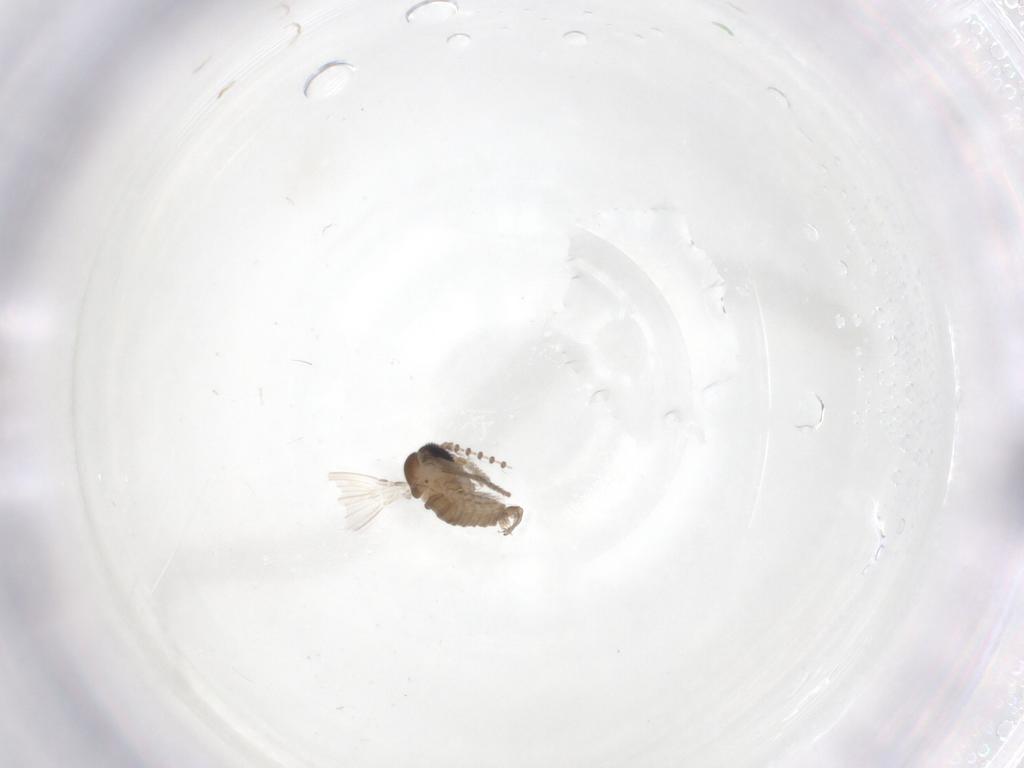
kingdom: Animalia
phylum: Arthropoda
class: Insecta
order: Diptera
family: Psychodidae
